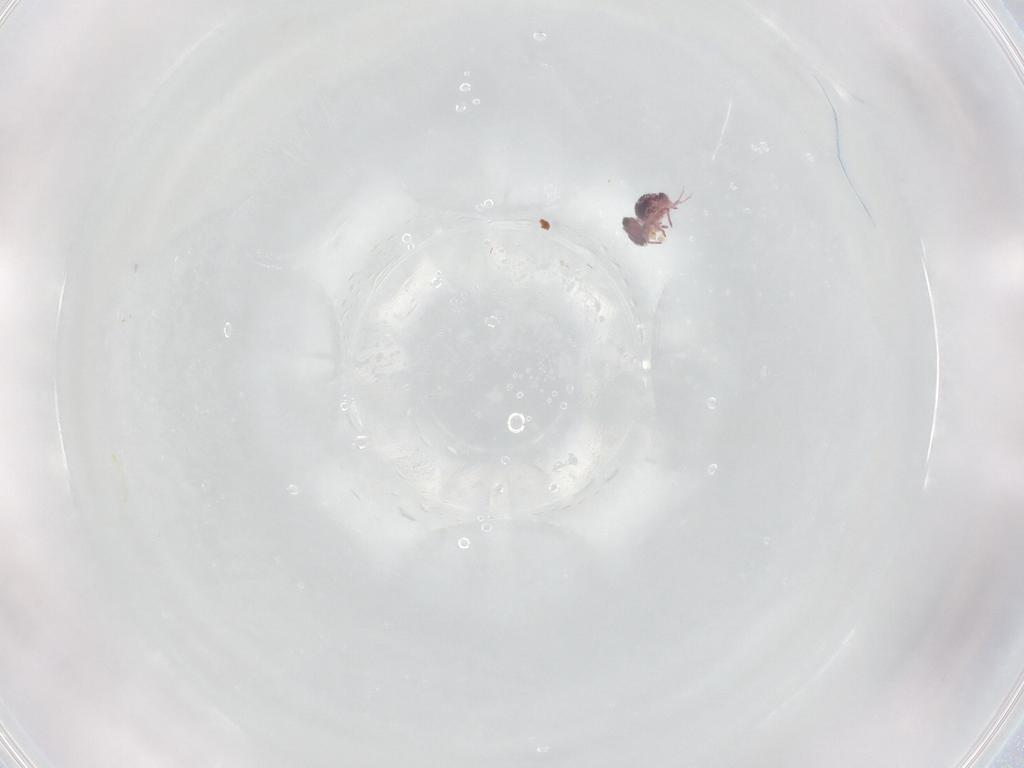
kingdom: Animalia
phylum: Arthropoda
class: Collembola
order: Symphypleona
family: Sminthurididae
